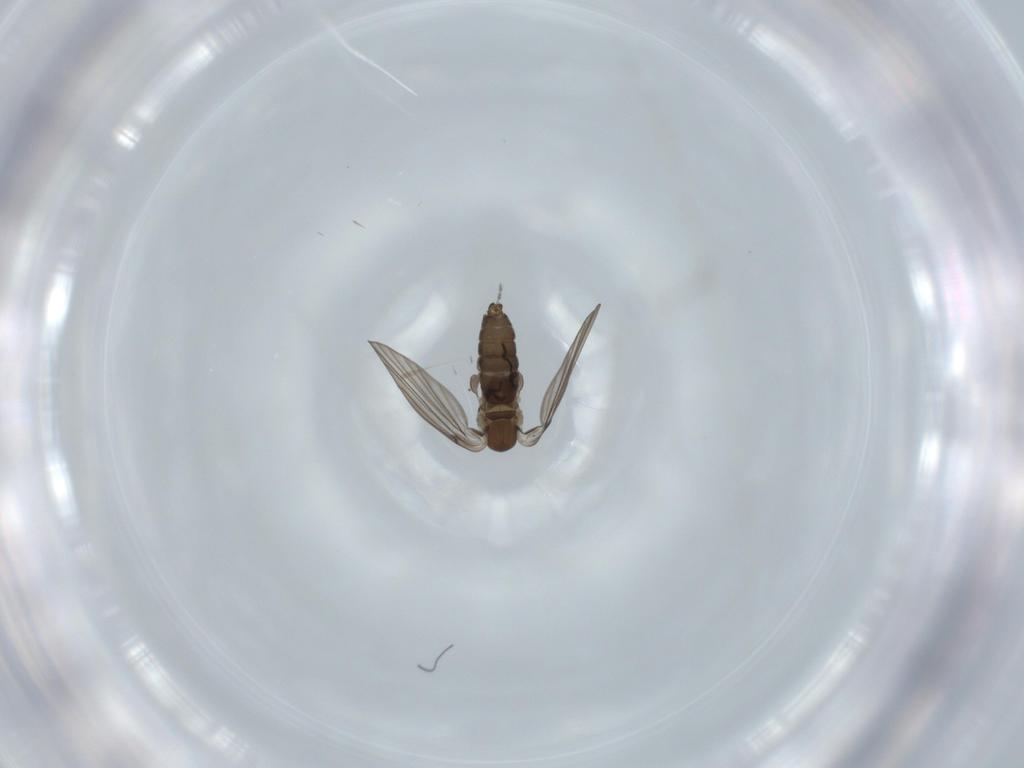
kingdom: Animalia
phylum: Arthropoda
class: Insecta
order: Diptera
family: Psychodidae
